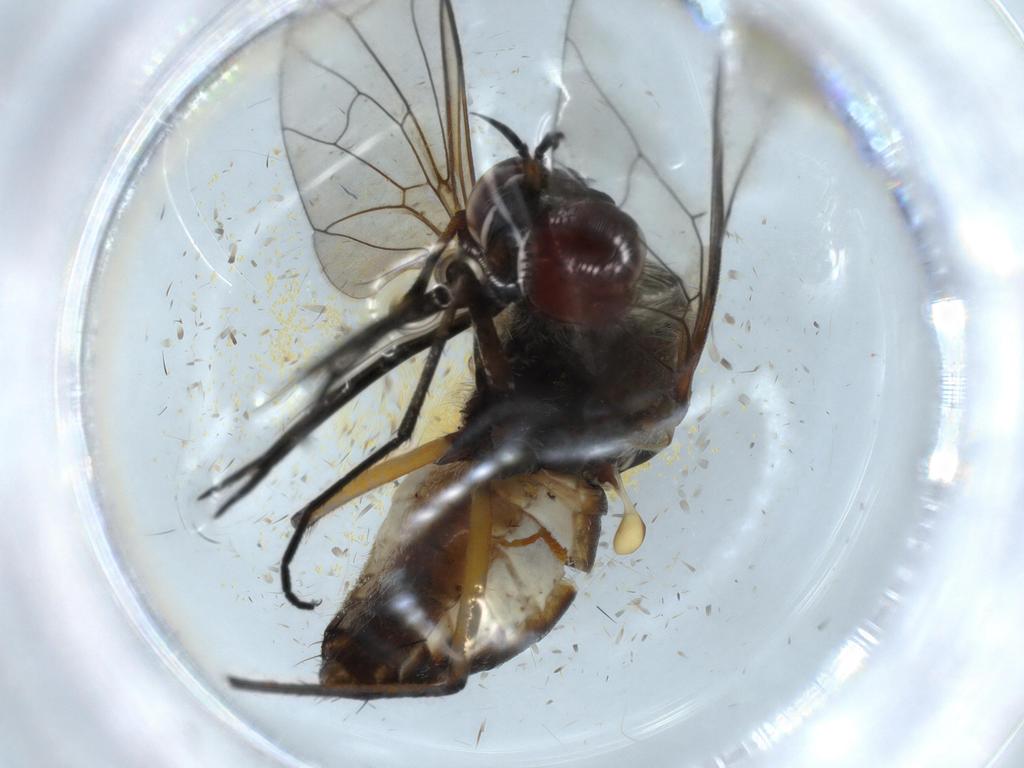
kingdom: Animalia
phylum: Arthropoda
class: Insecta
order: Diptera
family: Bombyliidae
